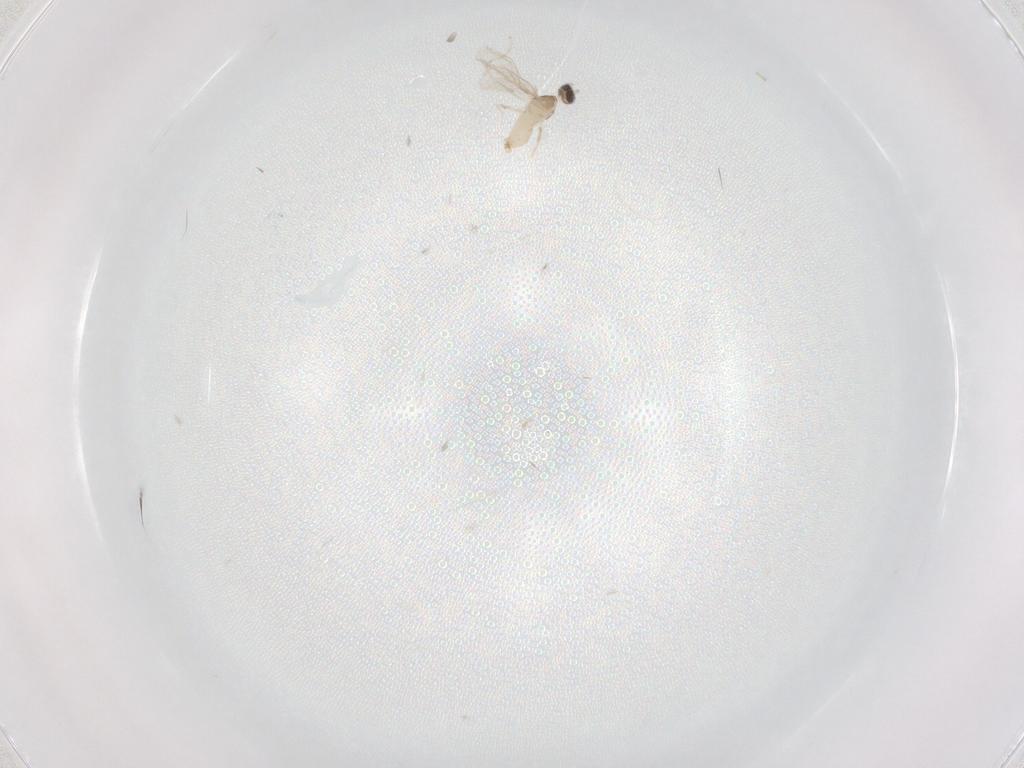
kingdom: Animalia
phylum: Arthropoda
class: Insecta
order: Diptera
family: Cecidomyiidae
